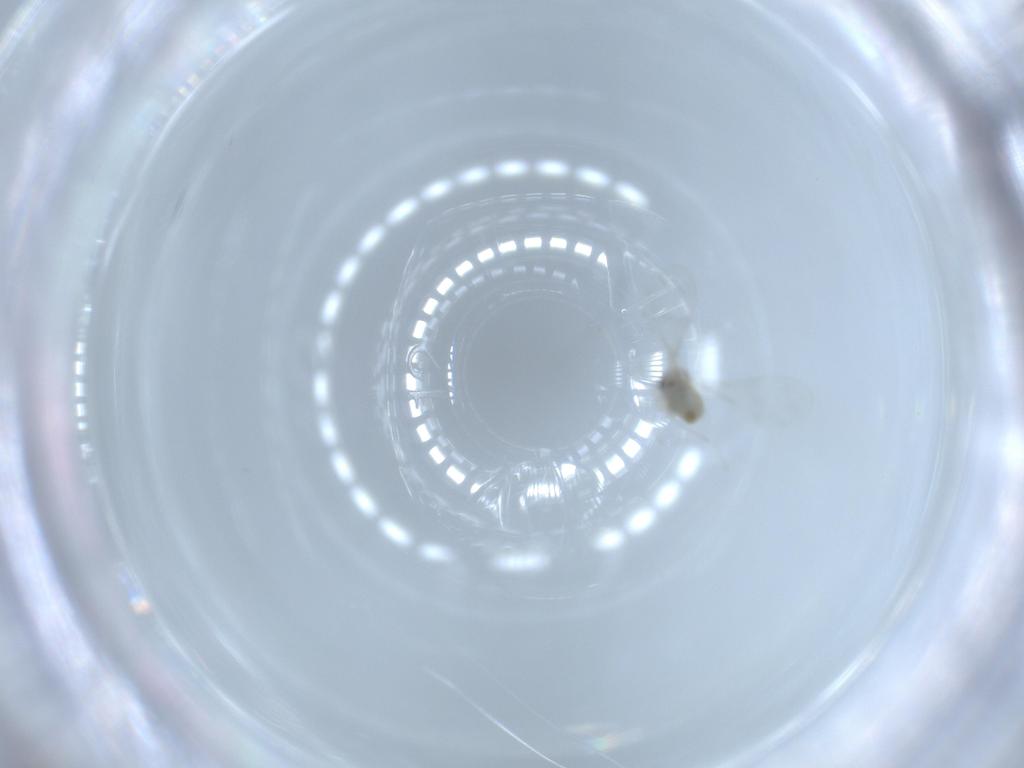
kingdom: Animalia
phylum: Arthropoda
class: Insecta
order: Diptera
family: Cecidomyiidae
